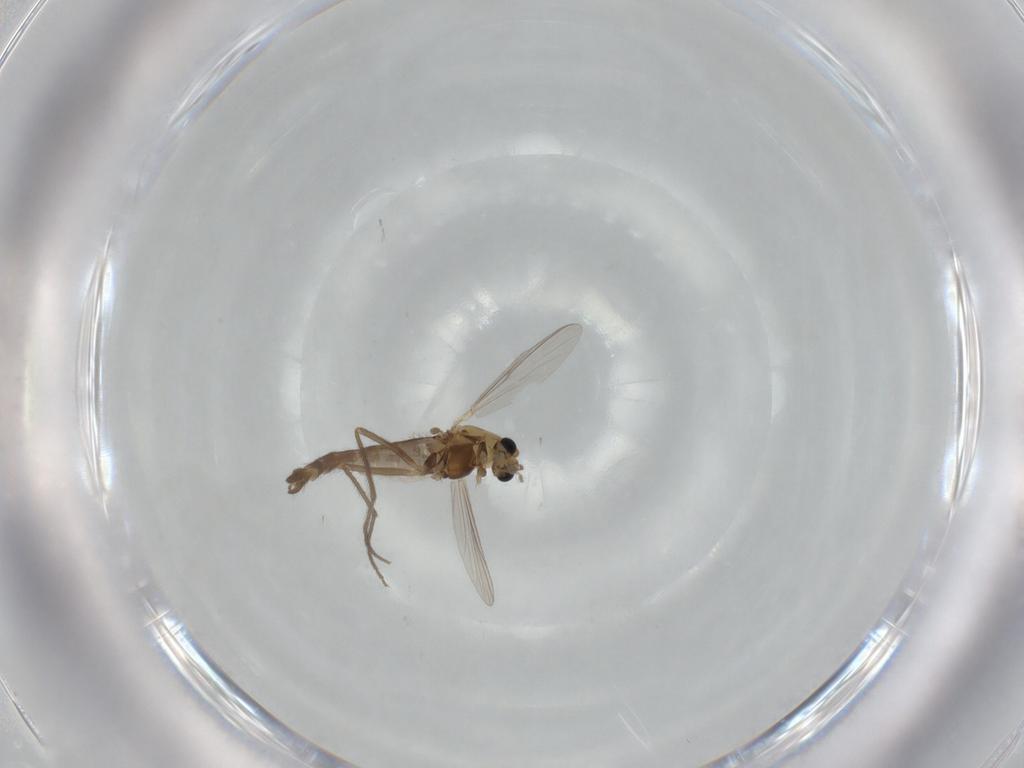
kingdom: Animalia
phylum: Arthropoda
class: Insecta
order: Diptera
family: Chironomidae
